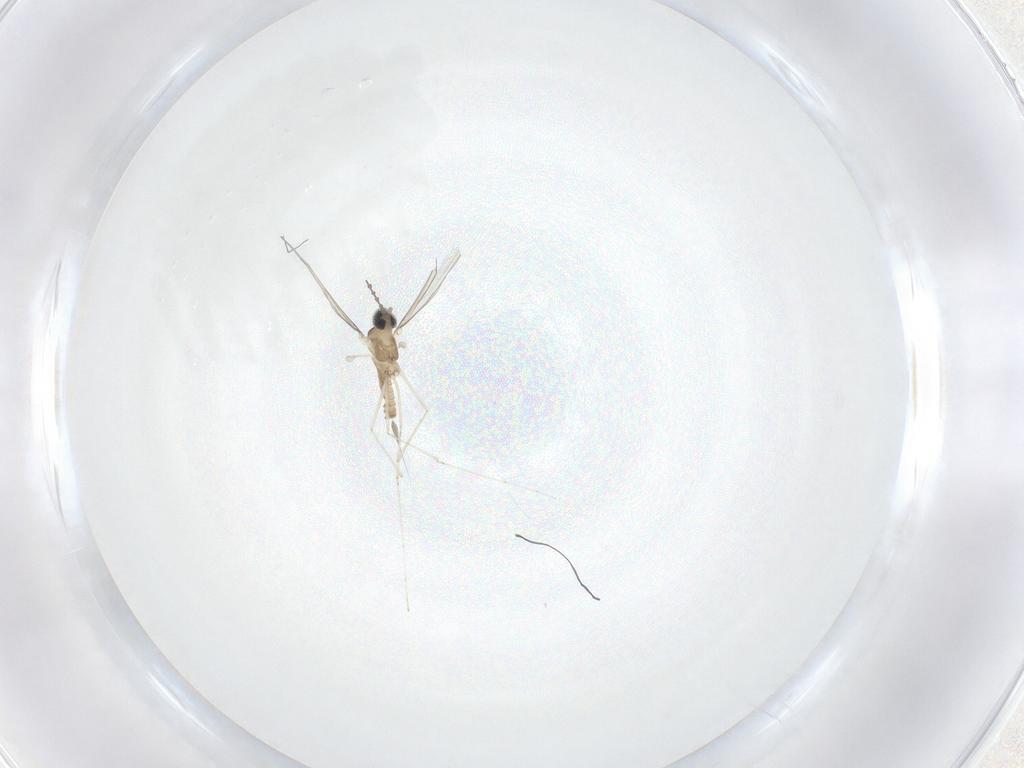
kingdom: Animalia
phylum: Arthropoda
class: Insecta
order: Diptera
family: Cecidomyiidae
